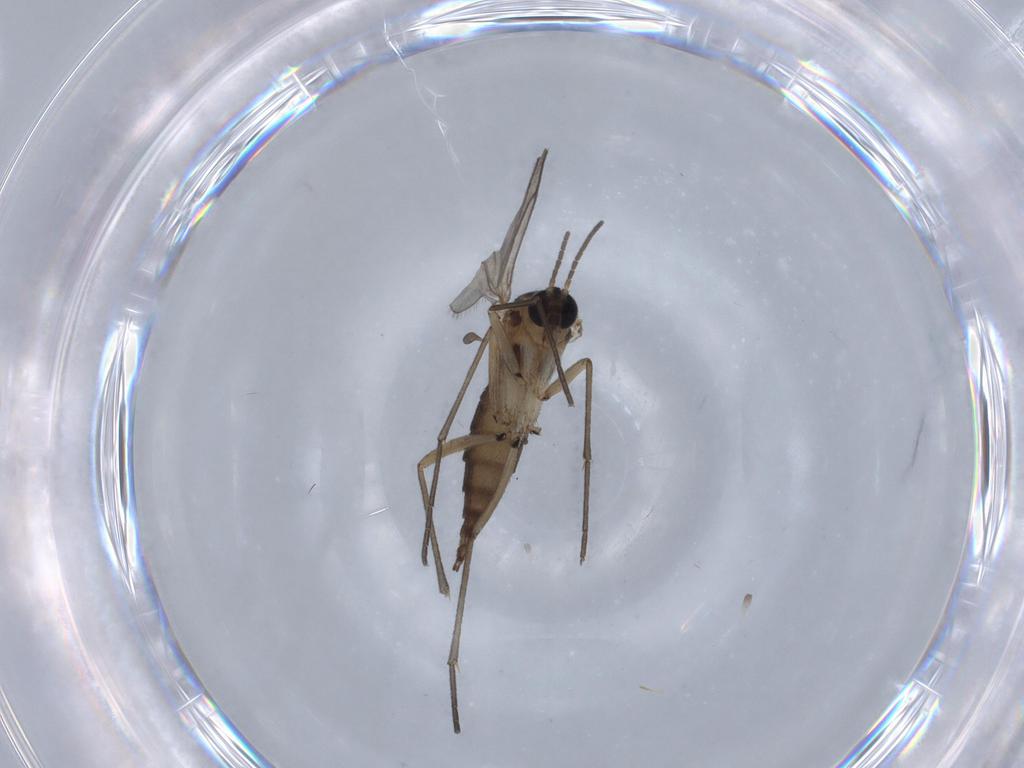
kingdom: Animalia
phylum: Arthropoda
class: Insecta
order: Diptera
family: Sciaridae
